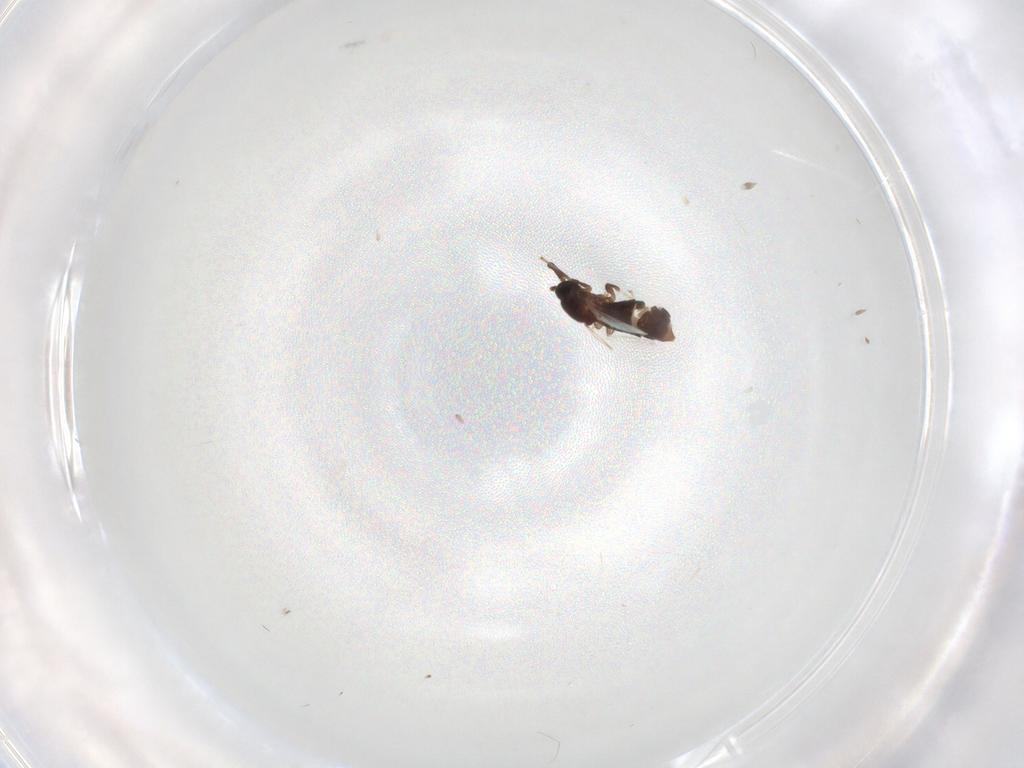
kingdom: Animalia
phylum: Arthropoda
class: Insecta
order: Diptera
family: Scatopsidae
